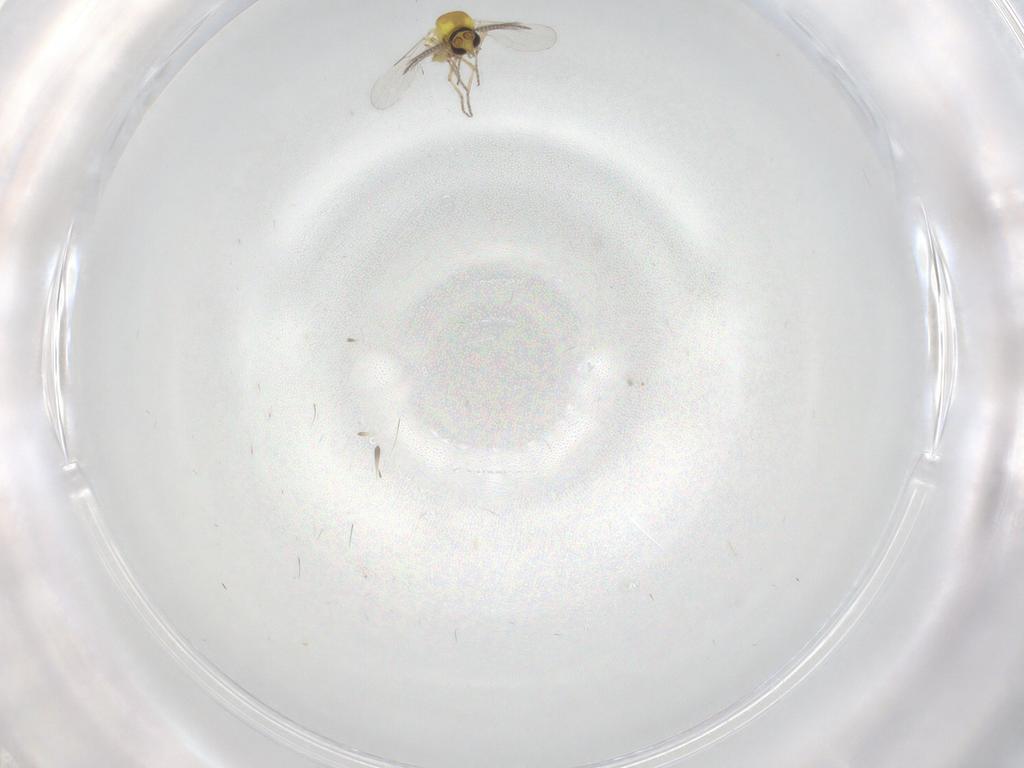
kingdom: Animalia
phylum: Arthropoda
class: Insecta
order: Diptera
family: Ceratopogonidae
